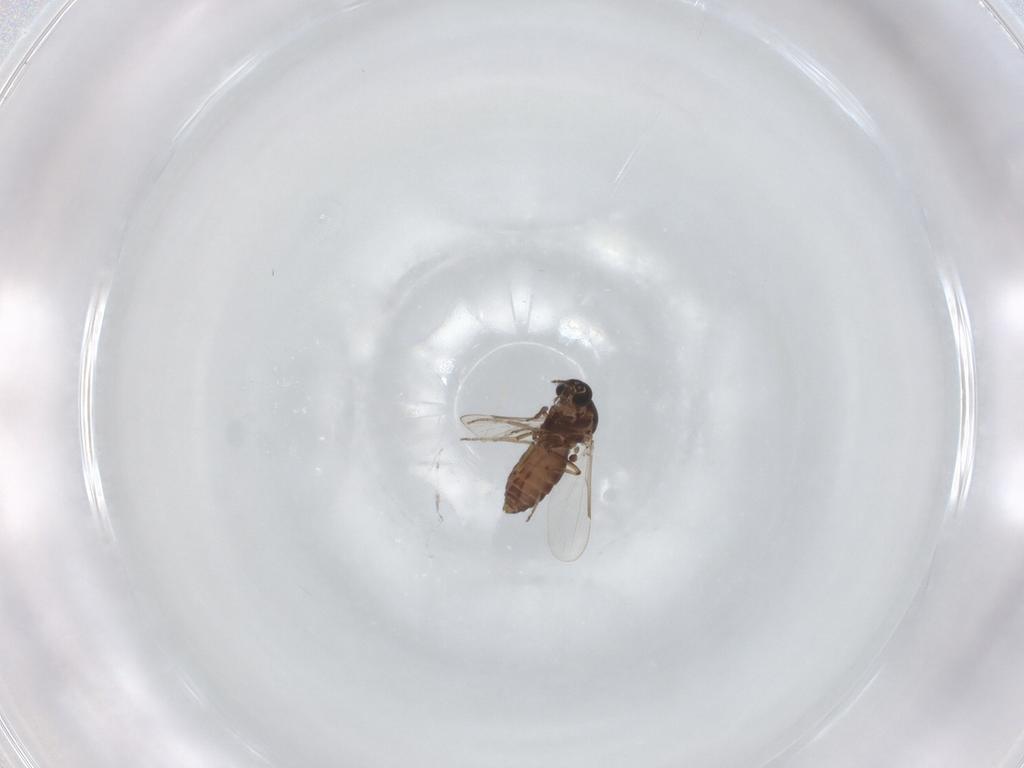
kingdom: Animalia
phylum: Arthropoda
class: Insecta
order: Diptera
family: Ceratopogonidae
